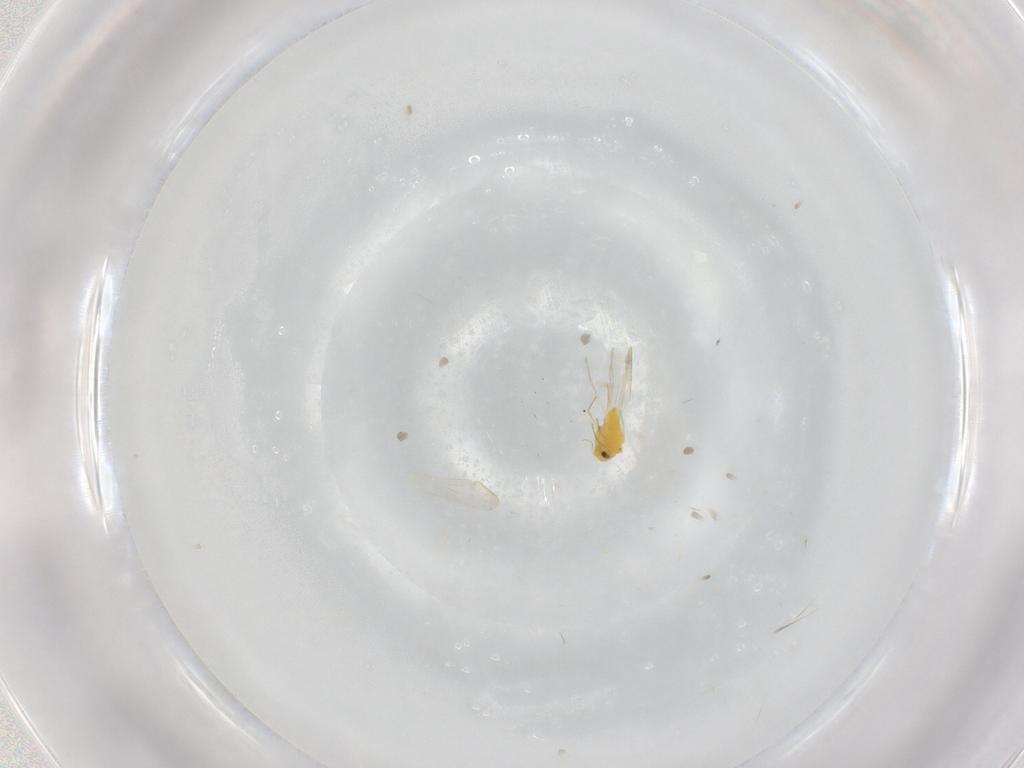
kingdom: Animalia
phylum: Arthropoda
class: Insecta
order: Hemiptera
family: Aleyrodidae
